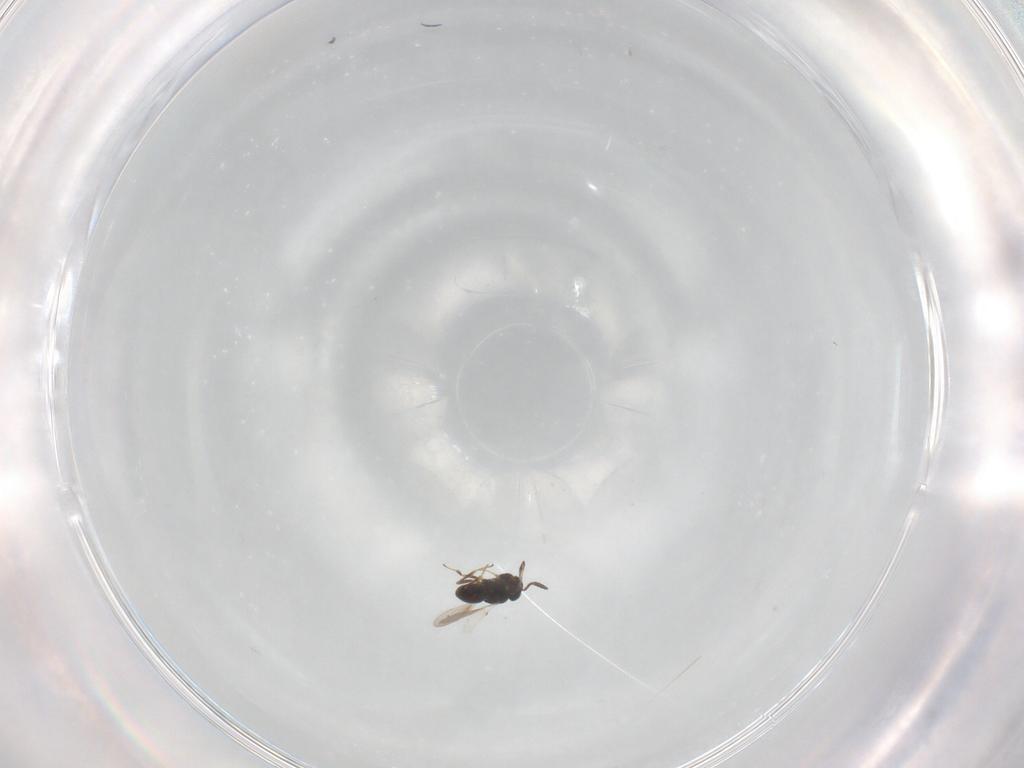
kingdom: Animalia
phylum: Arthropoda
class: Insecta
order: Hymenoptera
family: Scelionidae
